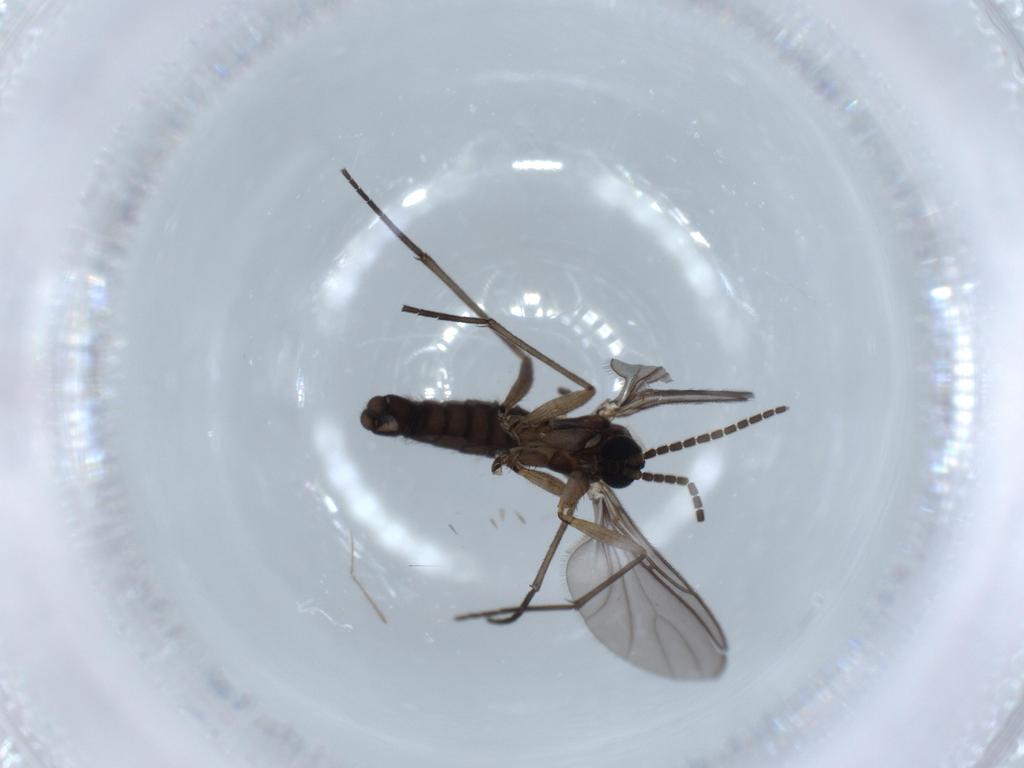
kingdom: Animalia
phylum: Arthropoda
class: Insecta
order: Diptera
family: Sciaridae
